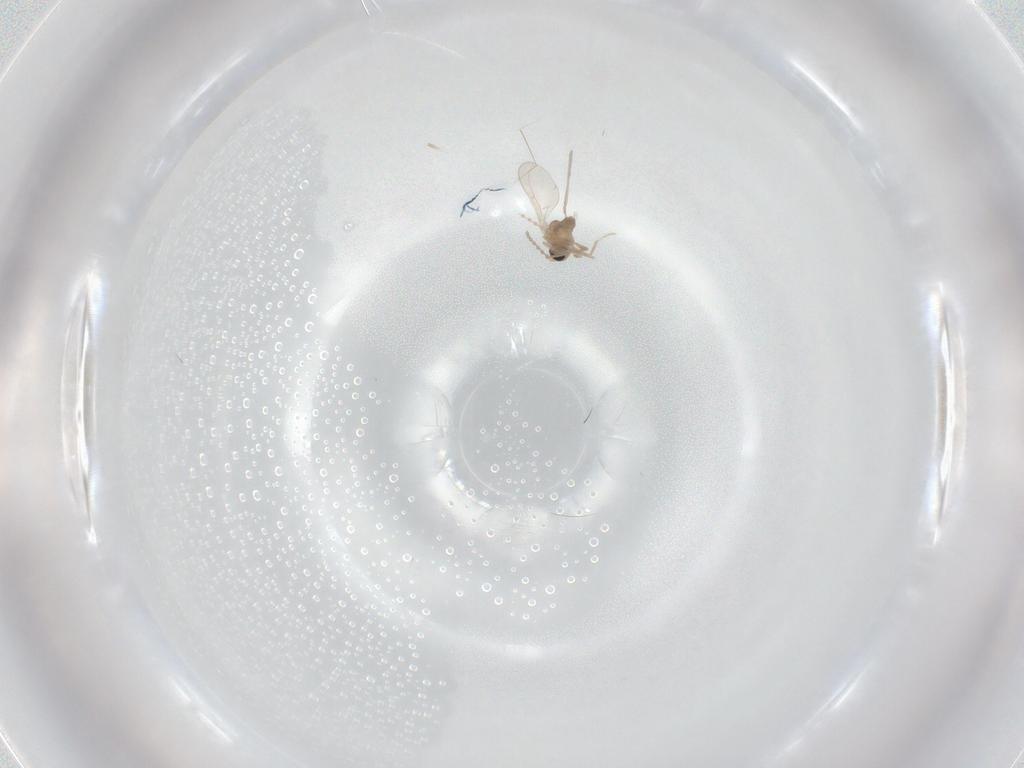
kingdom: Animalia
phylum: Arthropoda
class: Insecta
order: Diptera
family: Cecidomyiidae
